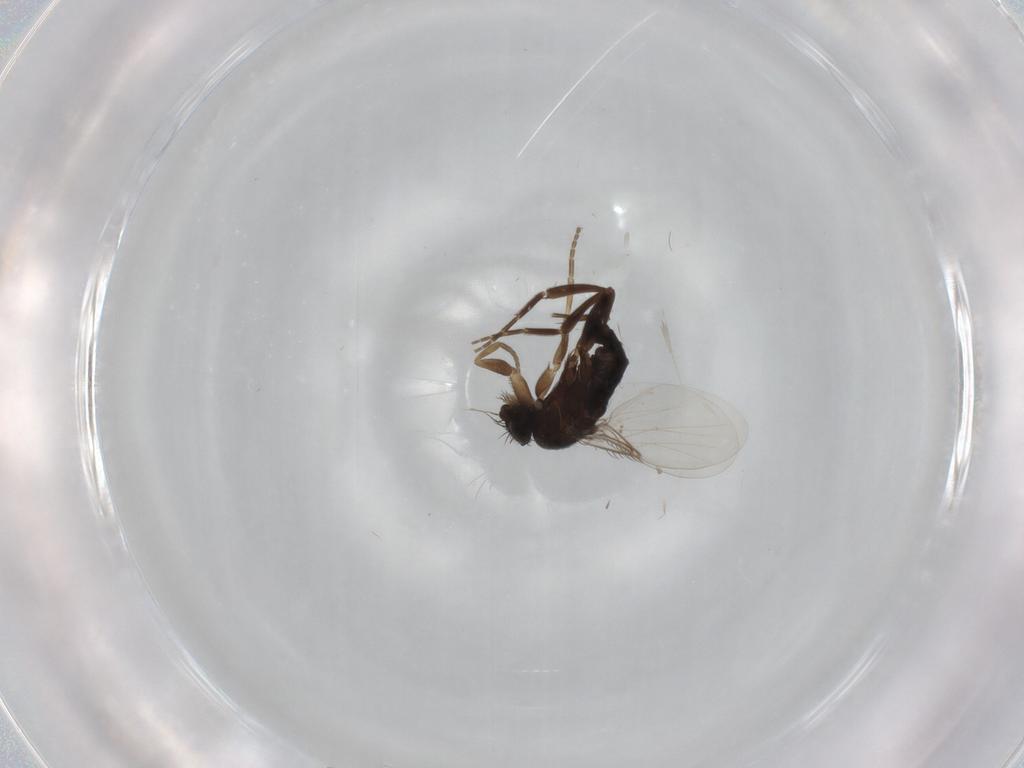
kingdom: Animalia
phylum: Arthropoda
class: Insecta
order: Diptera
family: Phoridae
